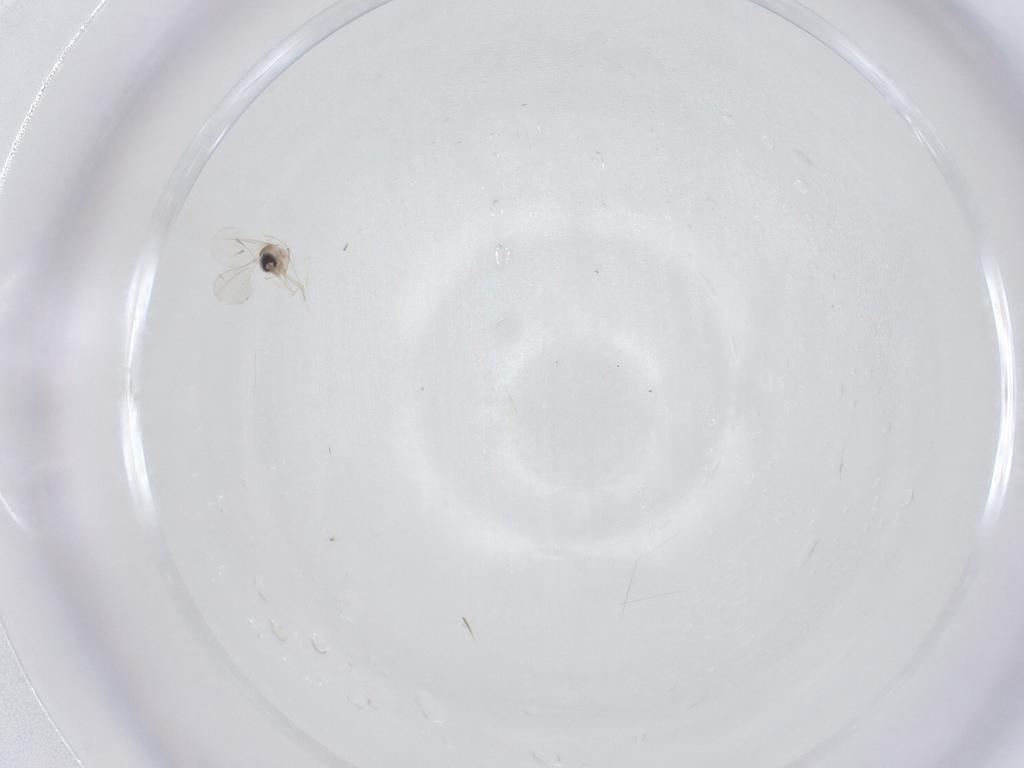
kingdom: Animalia
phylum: Arthropoda
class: Insecta
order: Diptera
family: Cecidomyiidae
